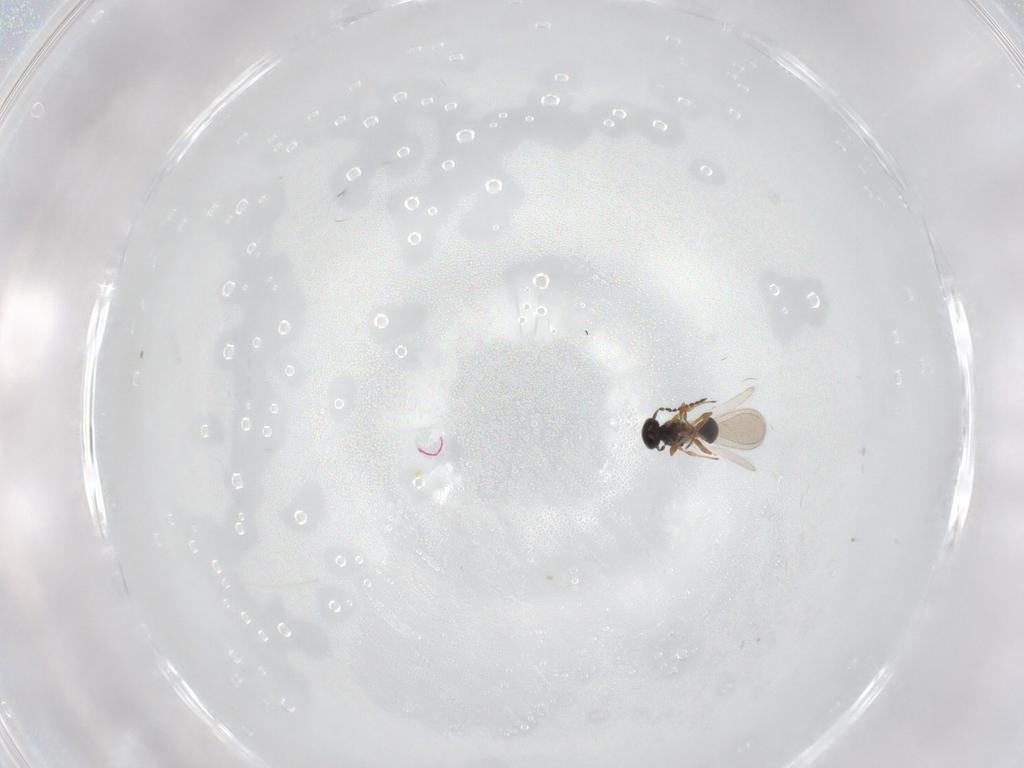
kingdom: Animalia
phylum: Arthropoda
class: Insecta
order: Hymenoptera
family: Platygastridae
